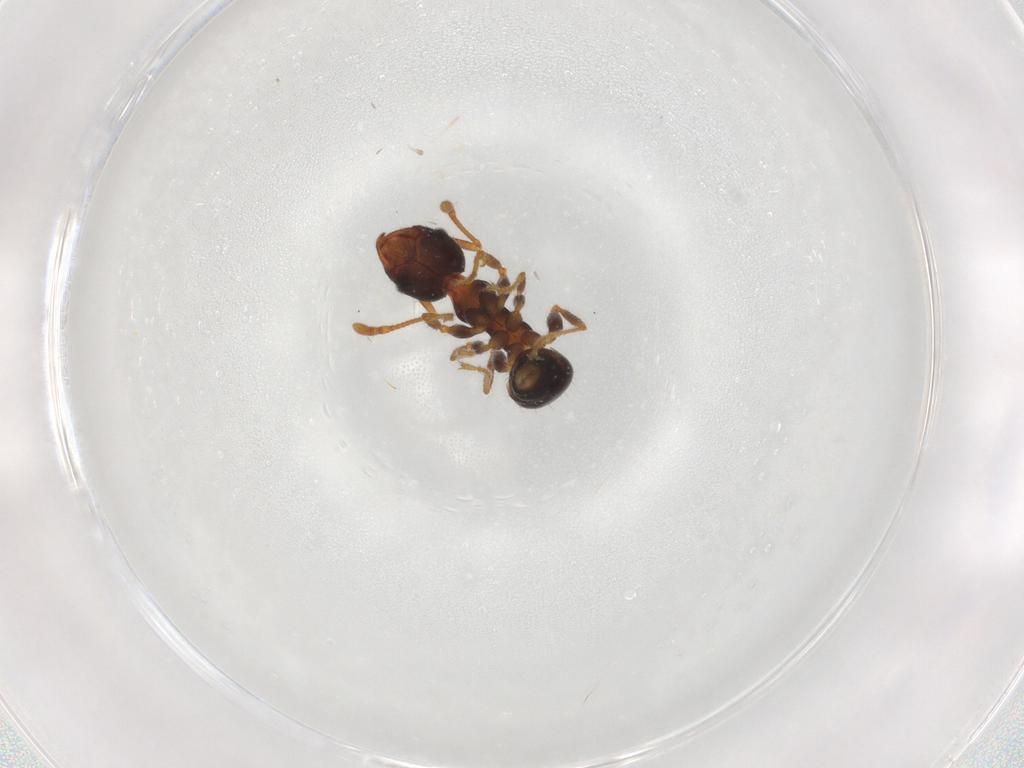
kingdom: Animalia
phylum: Arthropoda
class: Insecta
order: Hymenoptera
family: Formicidae
